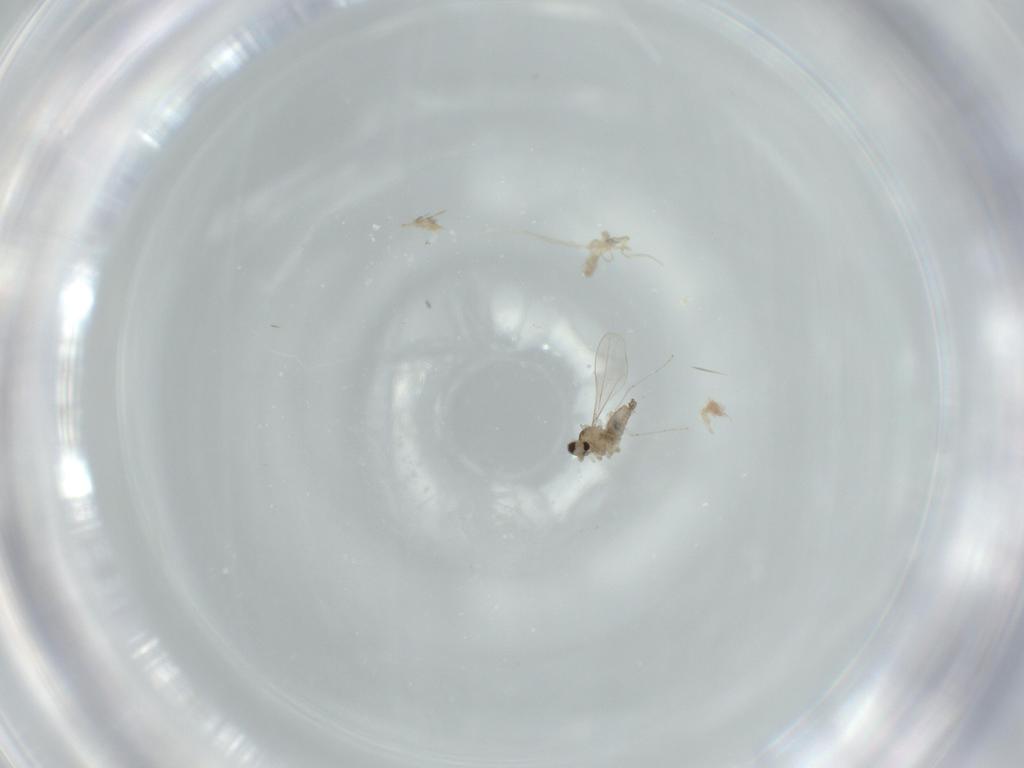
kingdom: Animalia
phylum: Arthropoda
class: Insecta
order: Diptera
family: Cecidomyiidae
